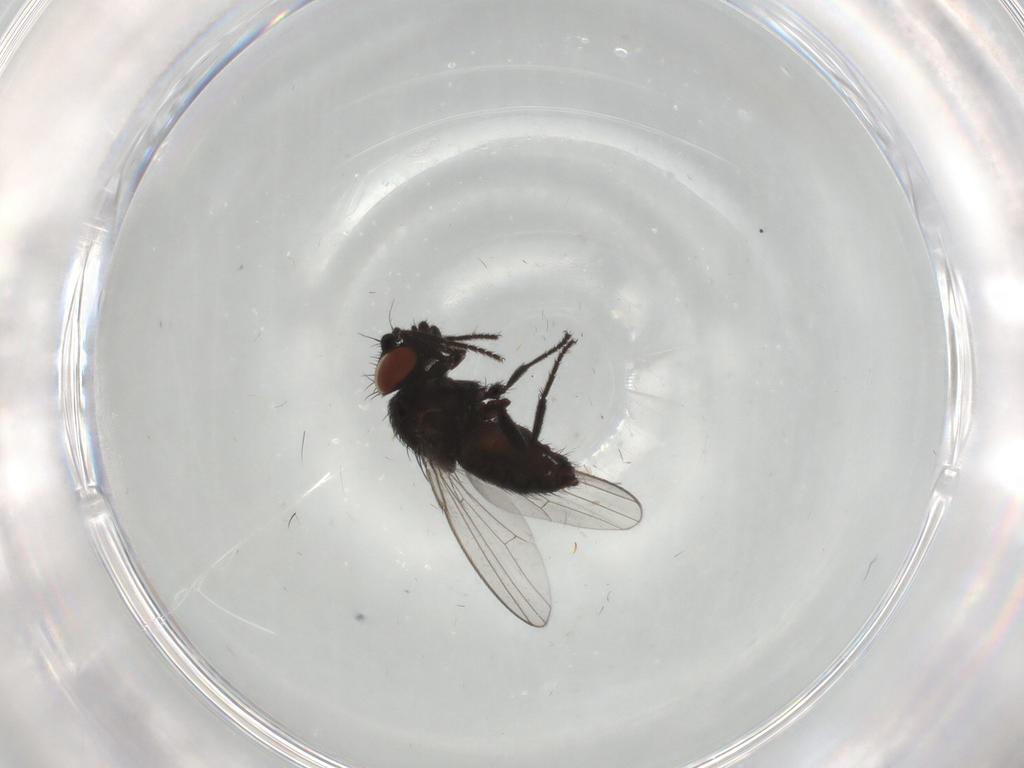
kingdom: Animalia
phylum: Arthropoda
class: Insecta
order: Diptera
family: Milichiidae
